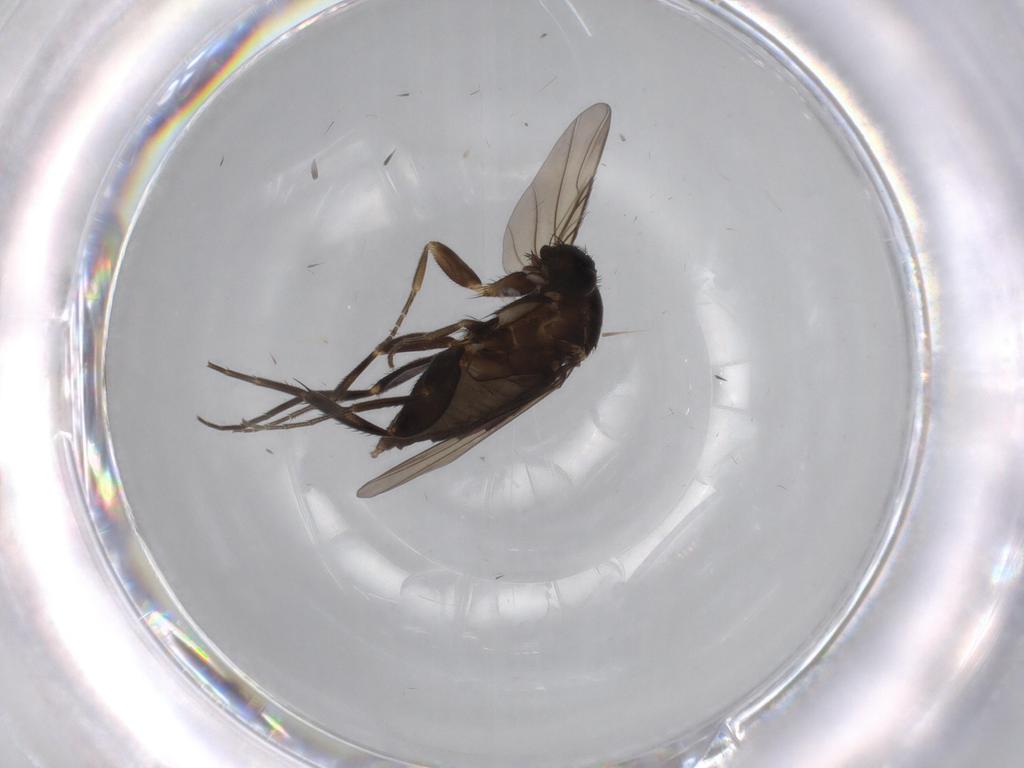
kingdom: Animalia
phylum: Arthropoda
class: Insecta
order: Diptera
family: Phoridae
